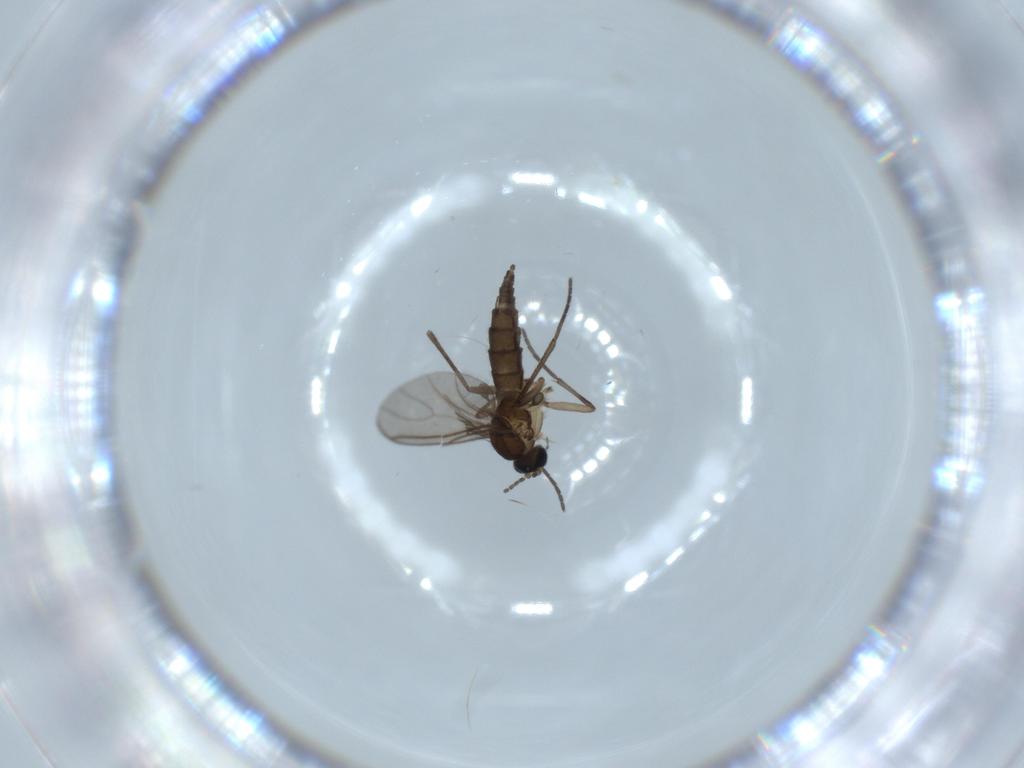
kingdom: Animalia
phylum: Arthropoda
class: Insecta
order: Diptera
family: Sciaridae
